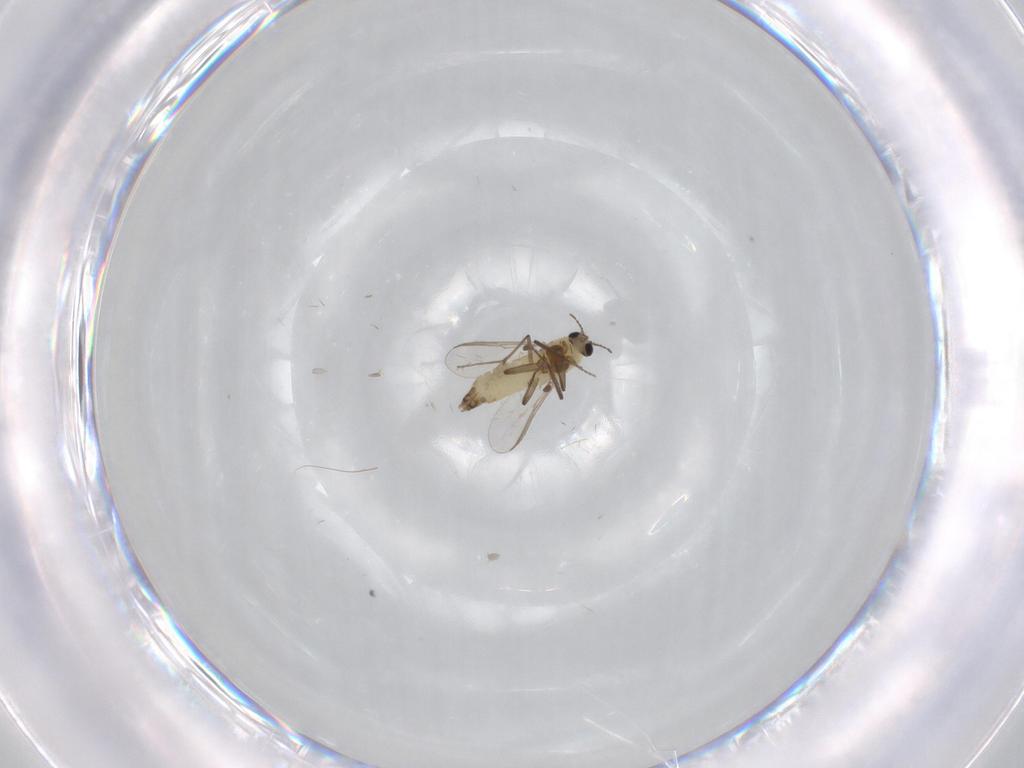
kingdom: Animalia
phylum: Arthropoda
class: Insecta
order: Diptera
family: Chironomidae
